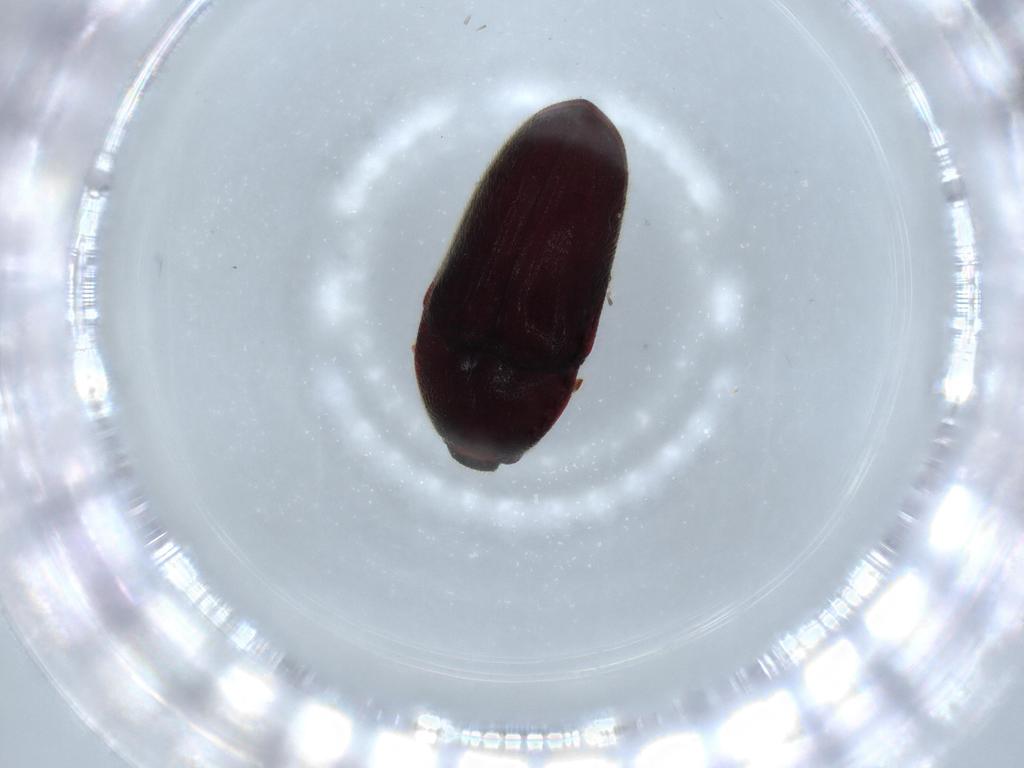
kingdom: Animalia
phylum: Arthropoda
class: Insecta
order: Coleoptera
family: Throscidae
